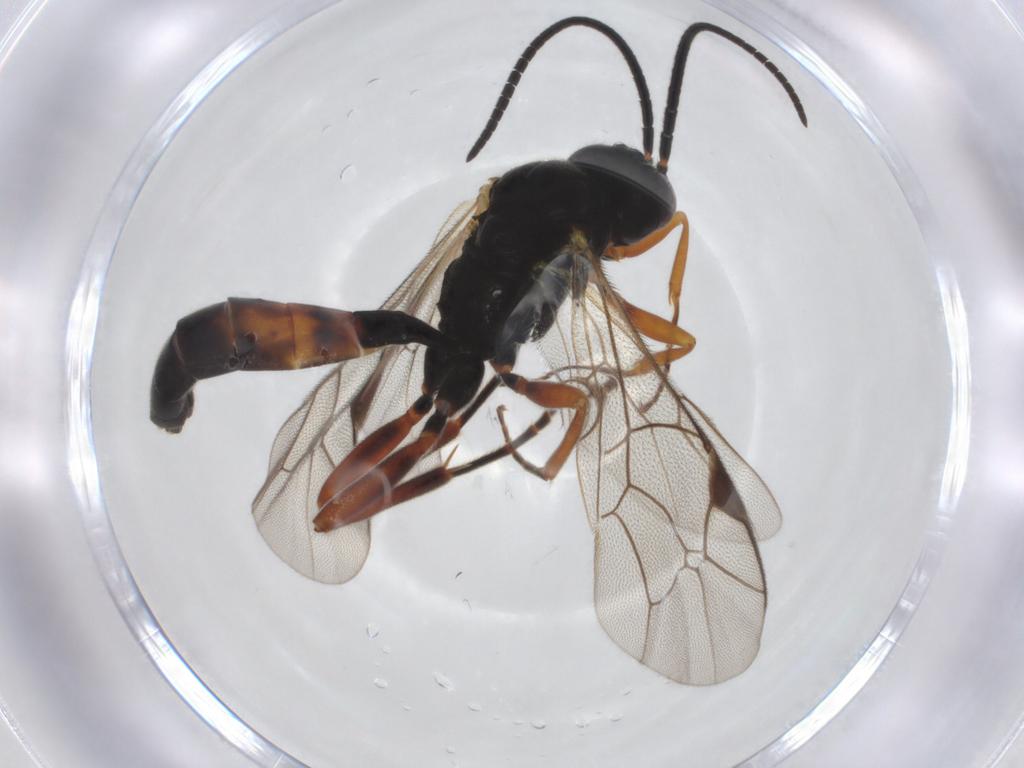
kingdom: Animalia
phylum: Arthropoda
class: Insecta
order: Hymenoptera
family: Ichneumonidae
